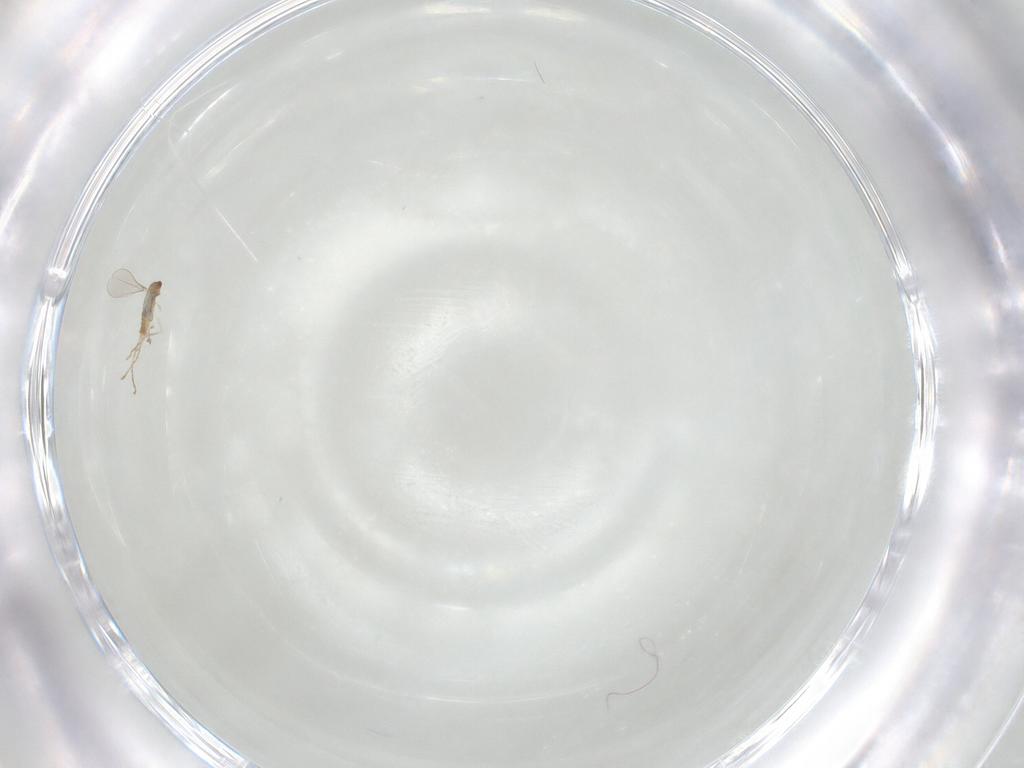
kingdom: Animalia
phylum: Arthropoda
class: Insecta
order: Diptera
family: Cecidomyiidae
